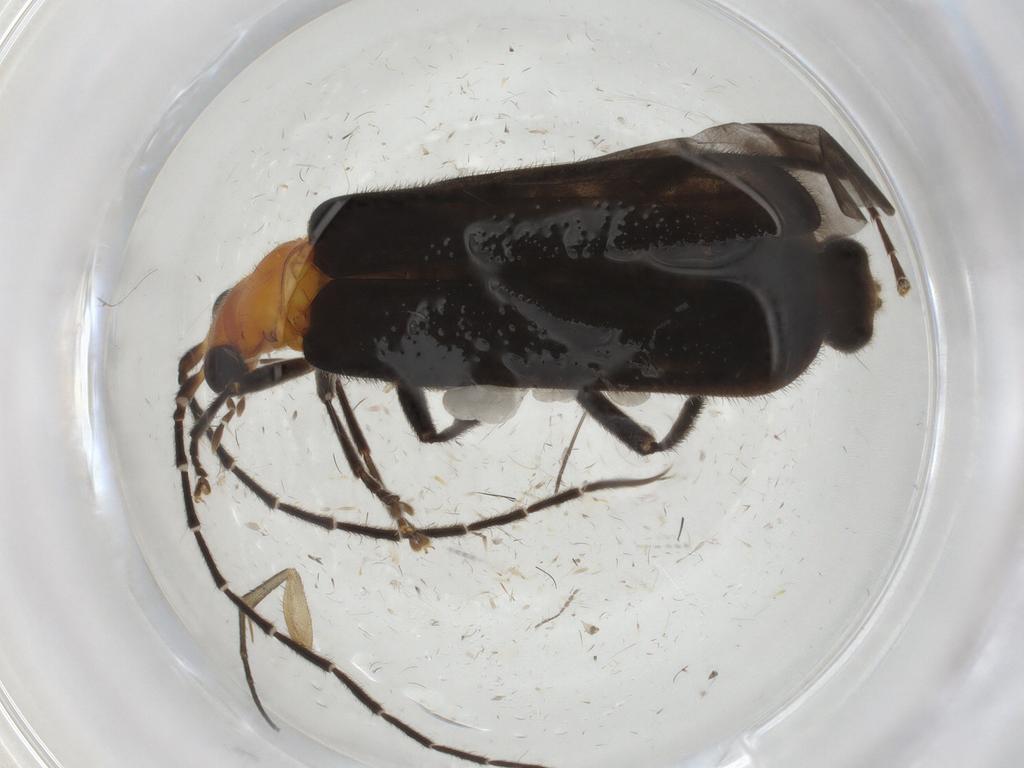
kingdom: Animalia
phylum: Arthropoda
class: Insecta
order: Coleoptera
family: Cantharidae
